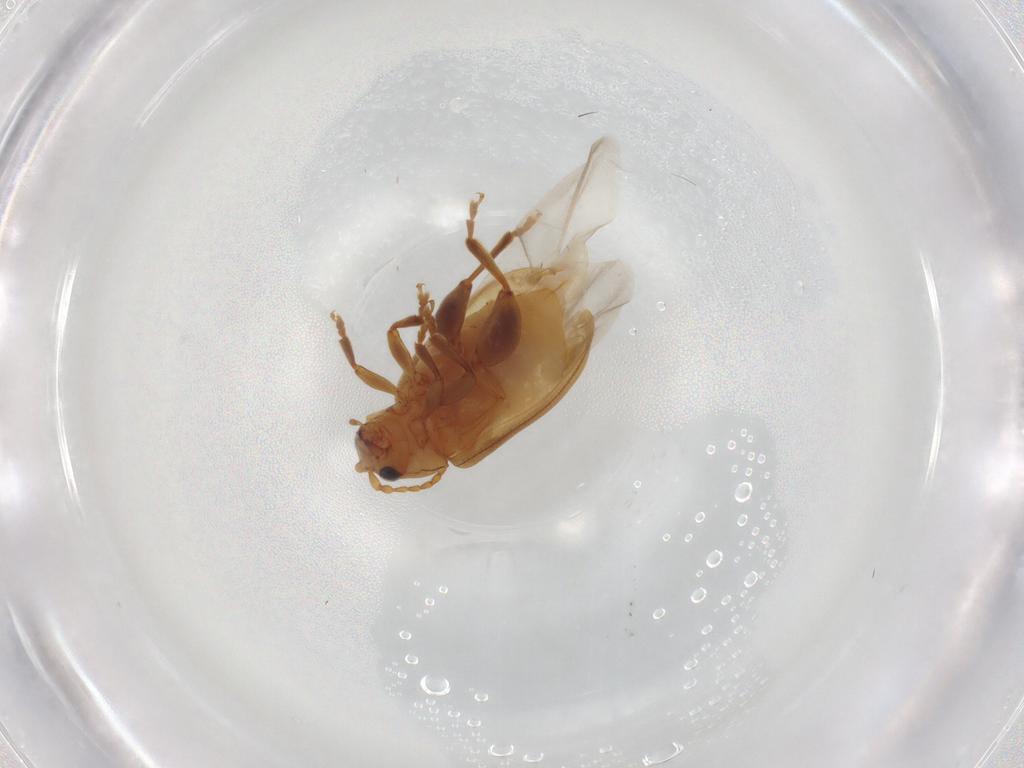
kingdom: Animalia
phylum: Arthropoda
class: Insecta
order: Coleoptera
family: Chrysomelidae
